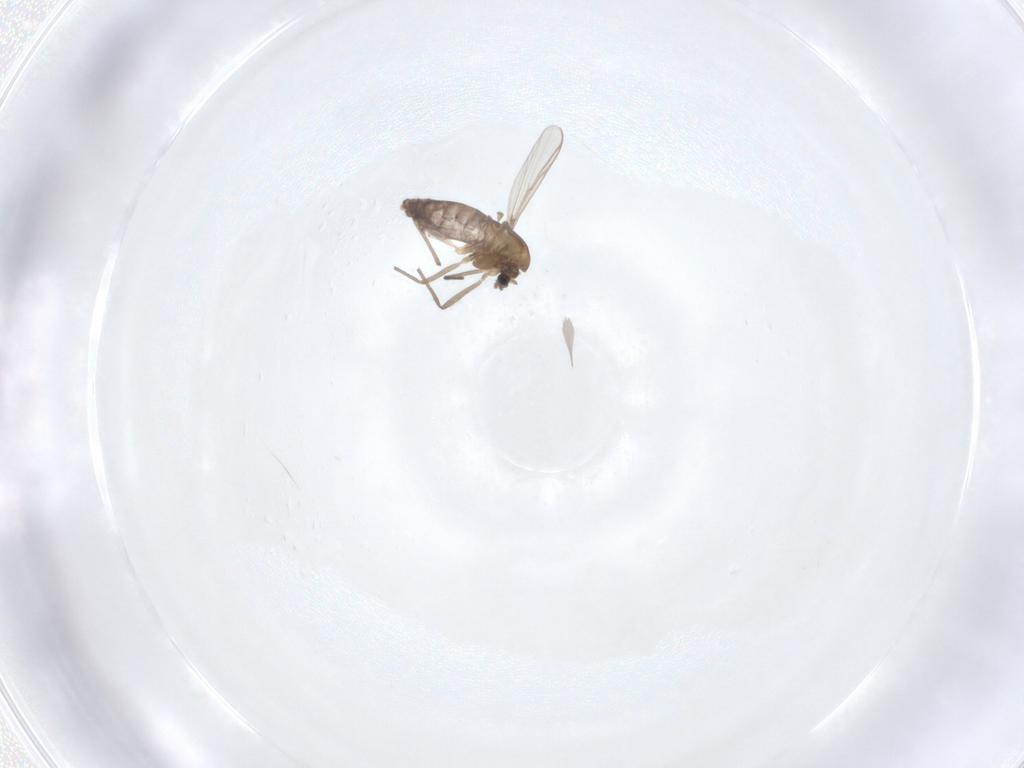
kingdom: Animalia
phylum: Arthropoda
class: Insecta
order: Diptera
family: Chironomidae
